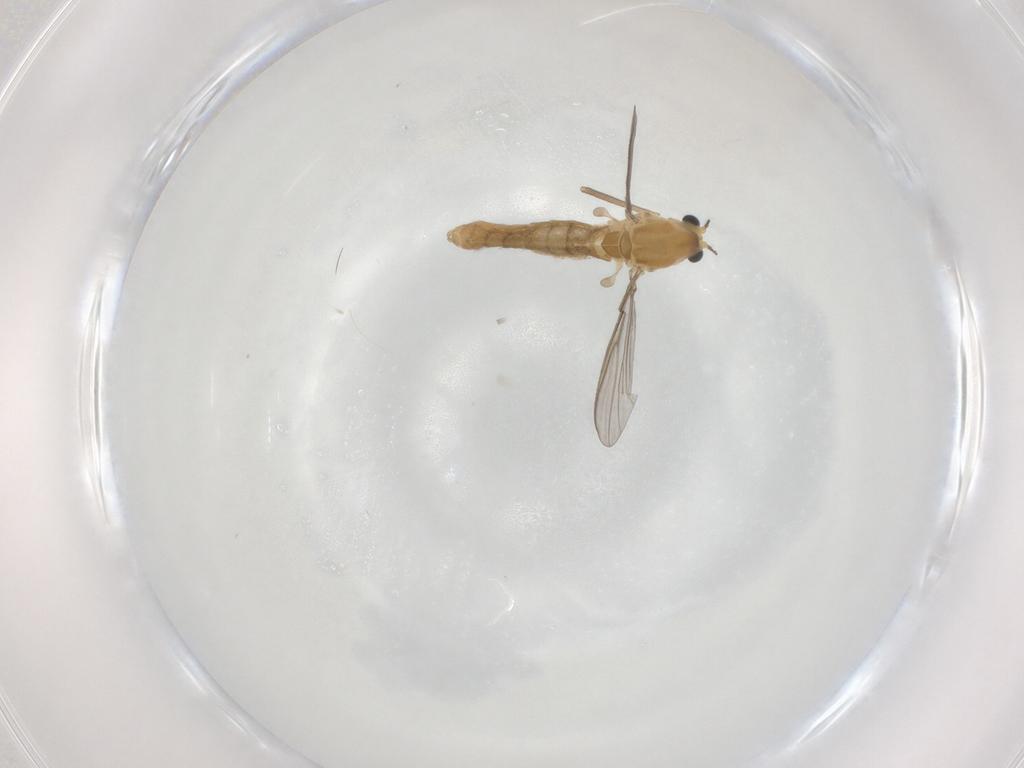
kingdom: Animalia
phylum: Arthropoda
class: Insecta
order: Diptera
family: Chironomidae
